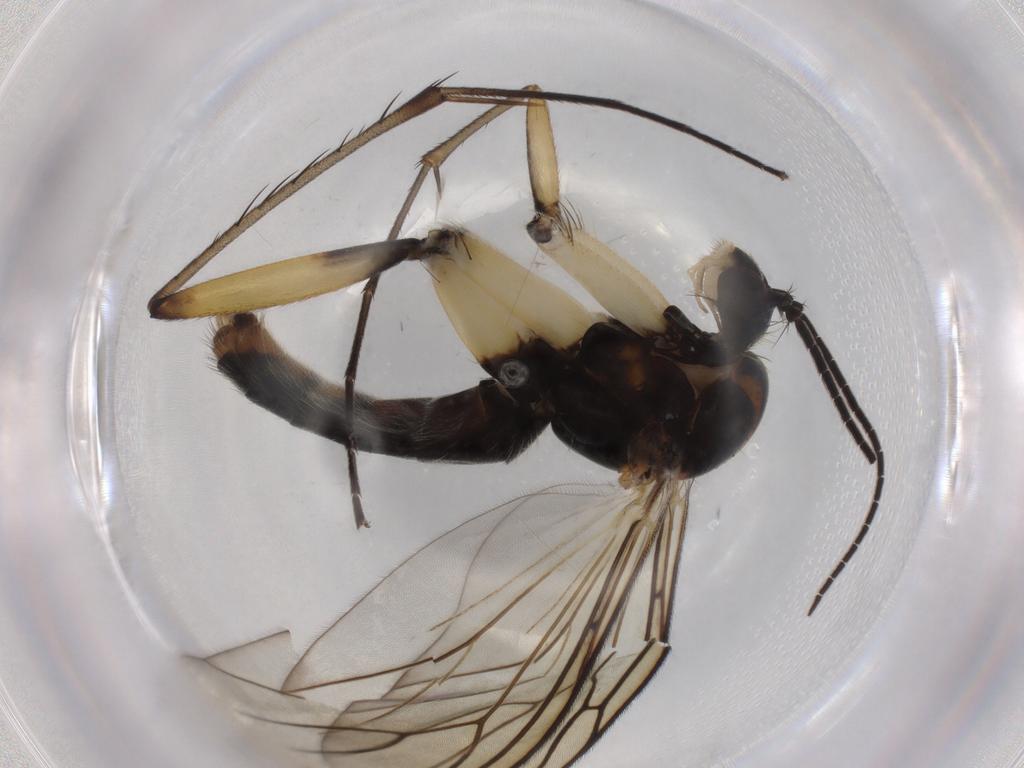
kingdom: Animalia
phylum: Arthropoda
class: Insecta
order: Diptera
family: Mycetophilidae
